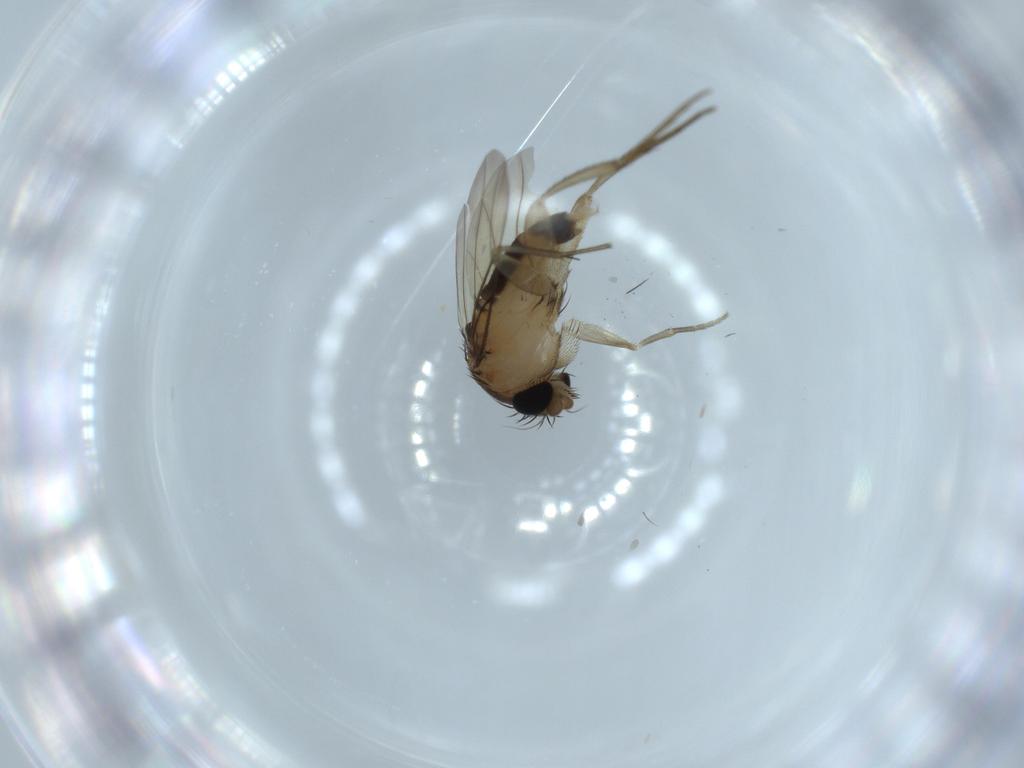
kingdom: Animalia
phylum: Arthropoda
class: Insecta
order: Diptera
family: Phoridae
